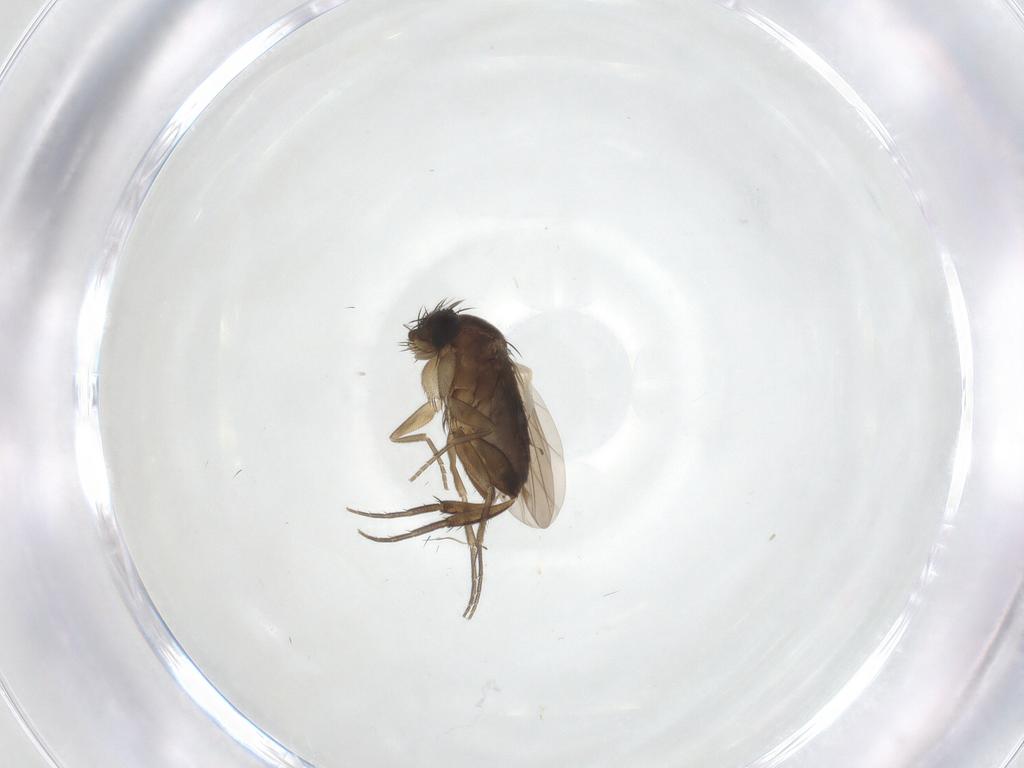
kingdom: Animalia
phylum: Arthropoda
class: Insecta
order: Diptera
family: Phoridae
